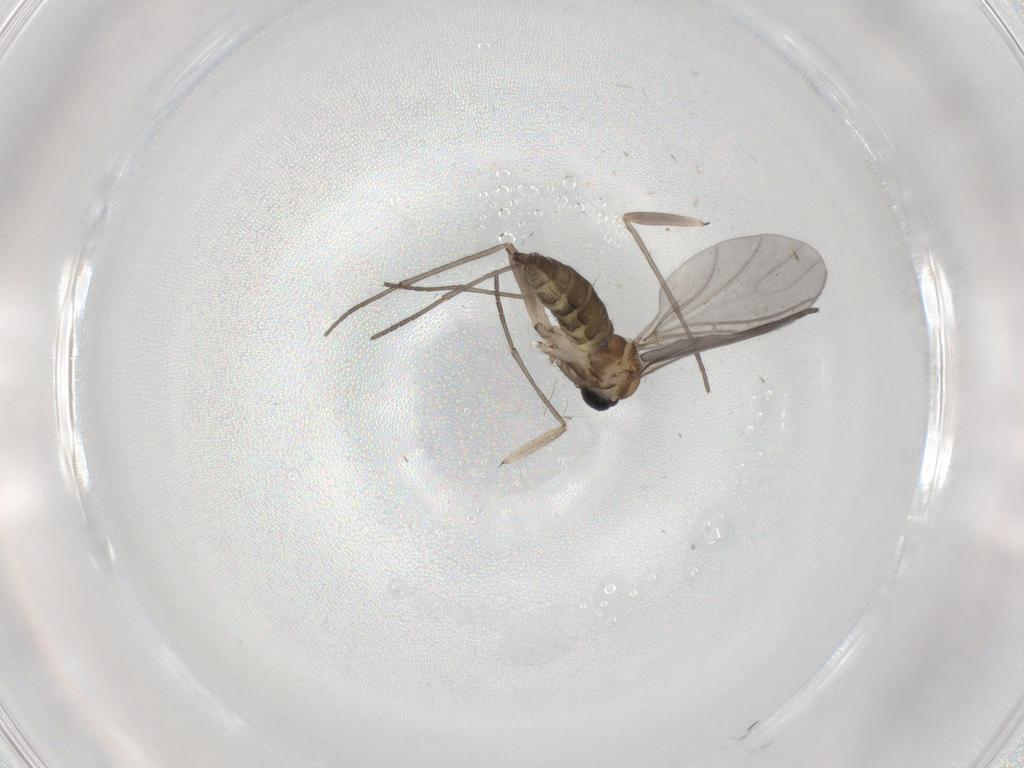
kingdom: Animalia
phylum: Arthropoda
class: Insecta
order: Diptera
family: Sciaridae
